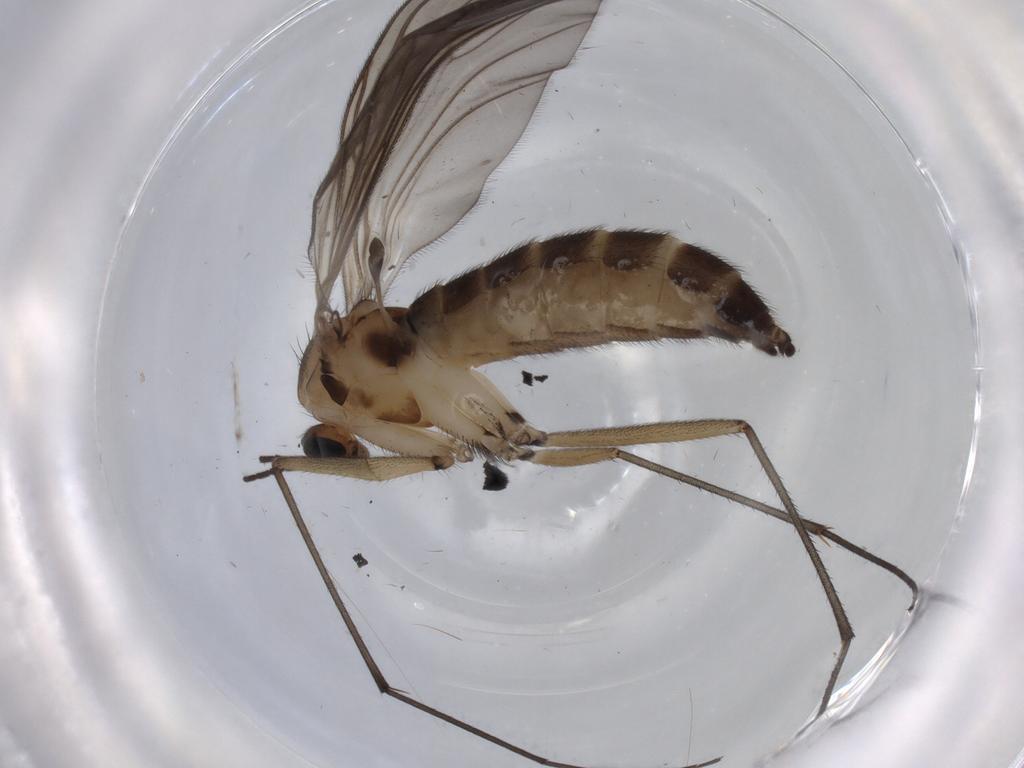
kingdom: Animalia
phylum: Arthropoda
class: Insecta
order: Diptera
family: Sciaridae
